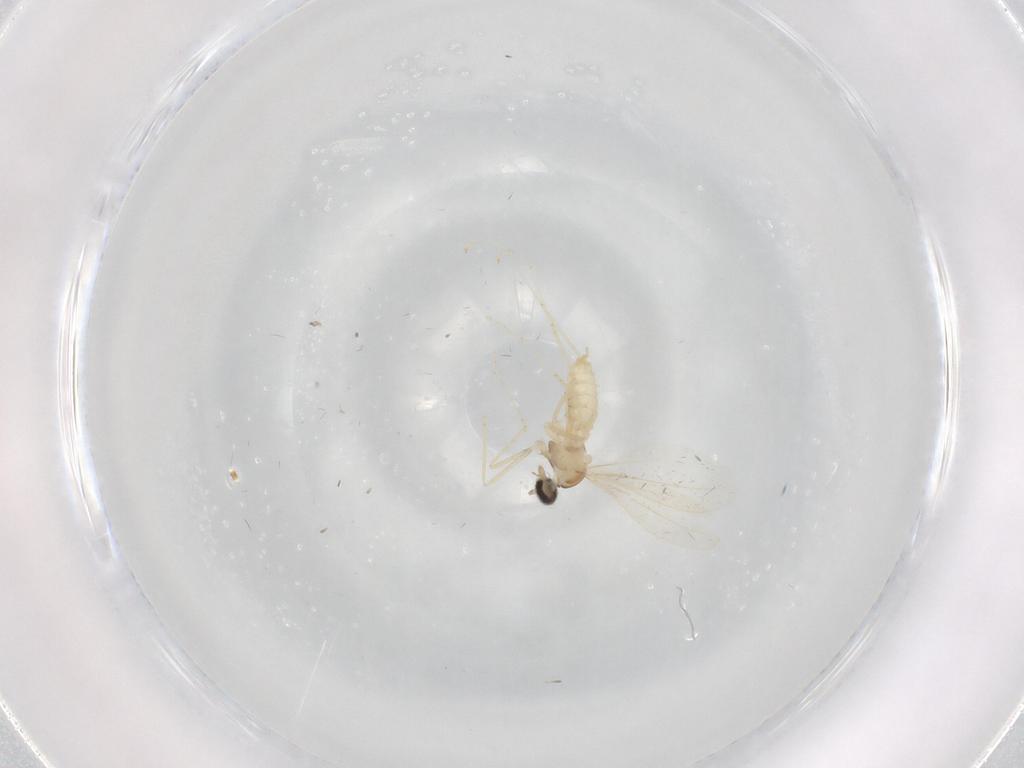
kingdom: Animalia
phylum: Arthropoda
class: Insecta
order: Diptera
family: Cecidomyiidae
